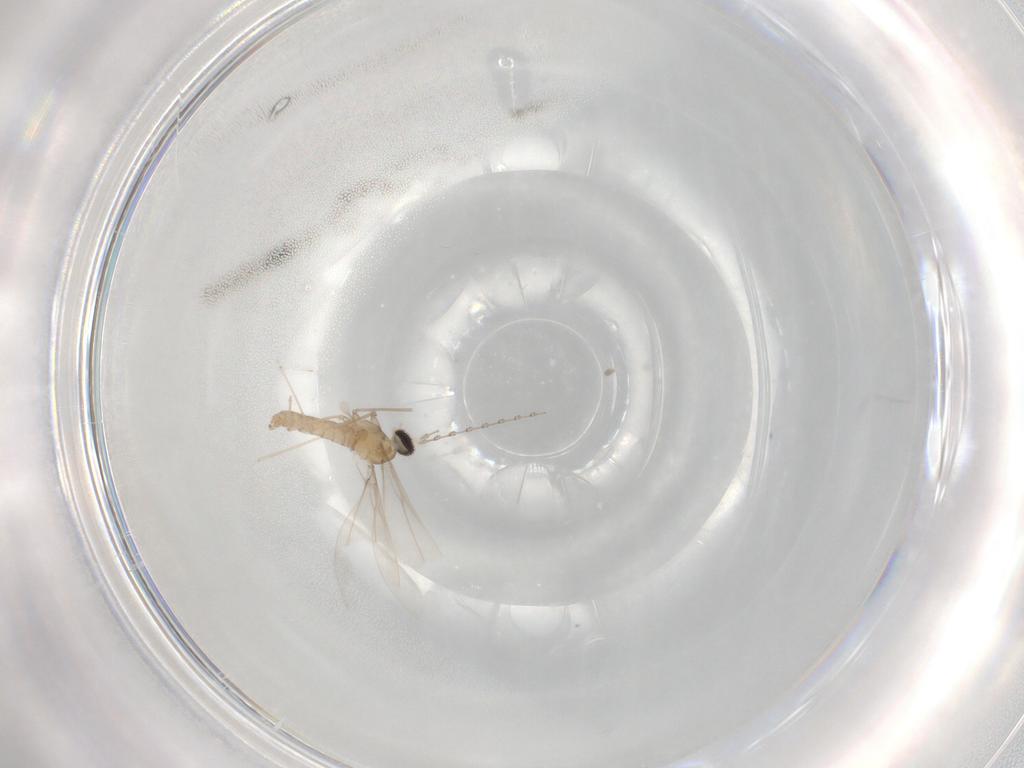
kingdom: Animalia
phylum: Arthropoda
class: Insecta
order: Diptera
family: Cecidomyiidae
